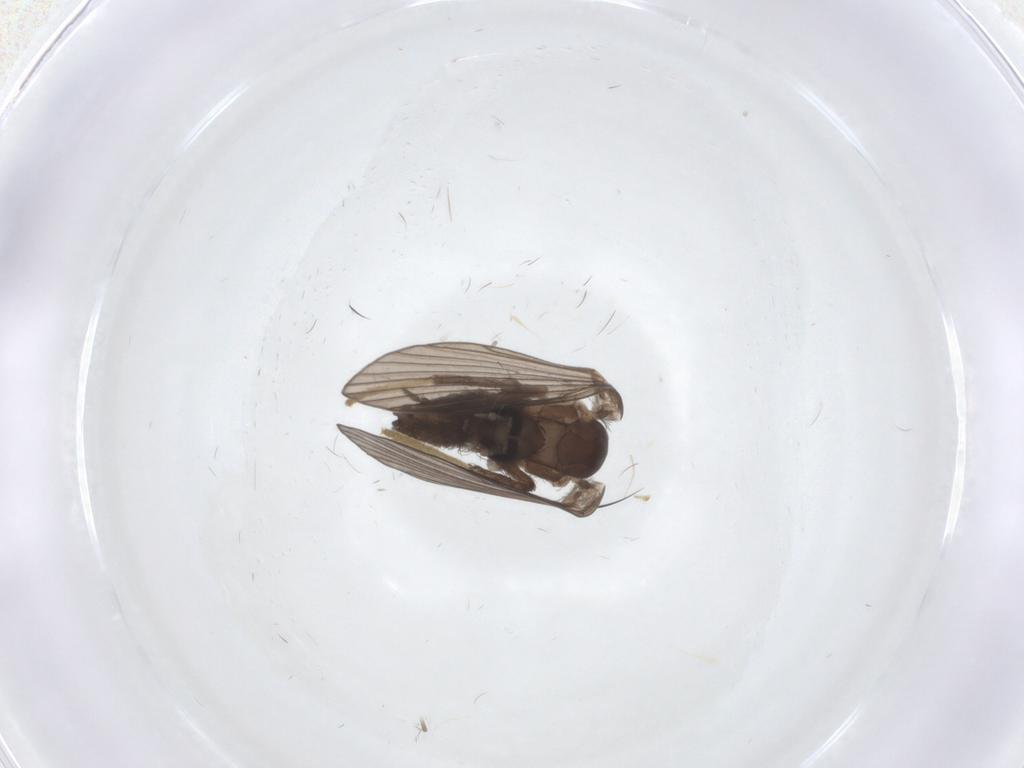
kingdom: Animalia
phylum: Arthropoda
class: Insecta
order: Diptera
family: Psychodidae
